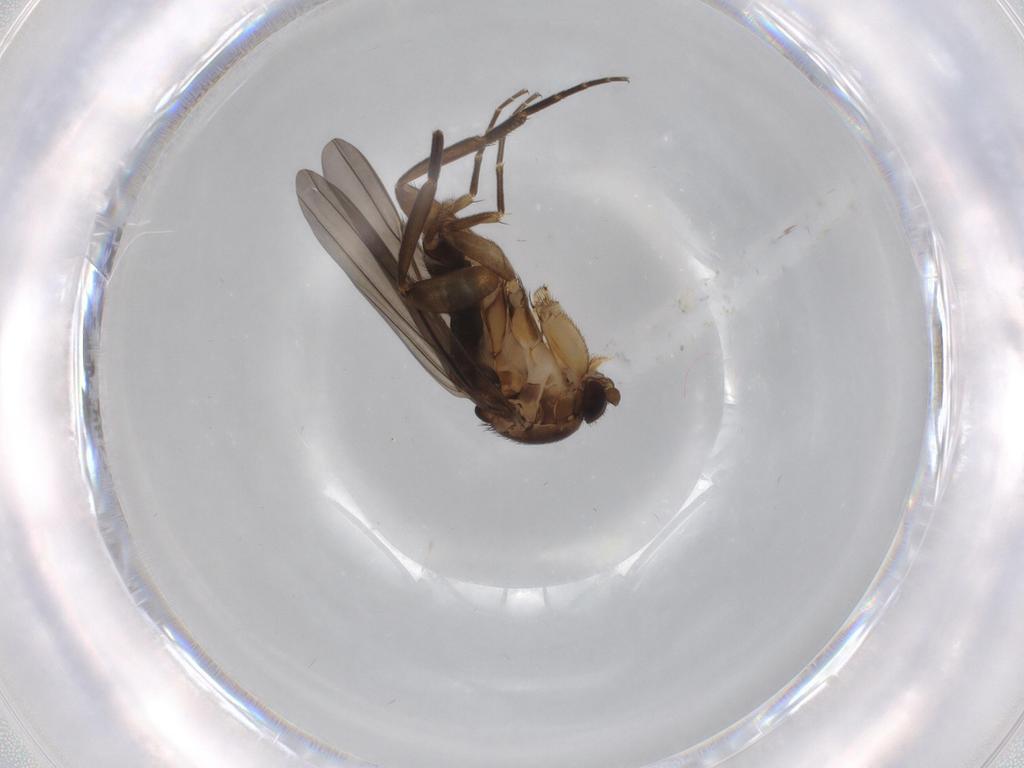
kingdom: Animalia
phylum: Arthropoda
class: Insecta
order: Diptera
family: Phoridae
